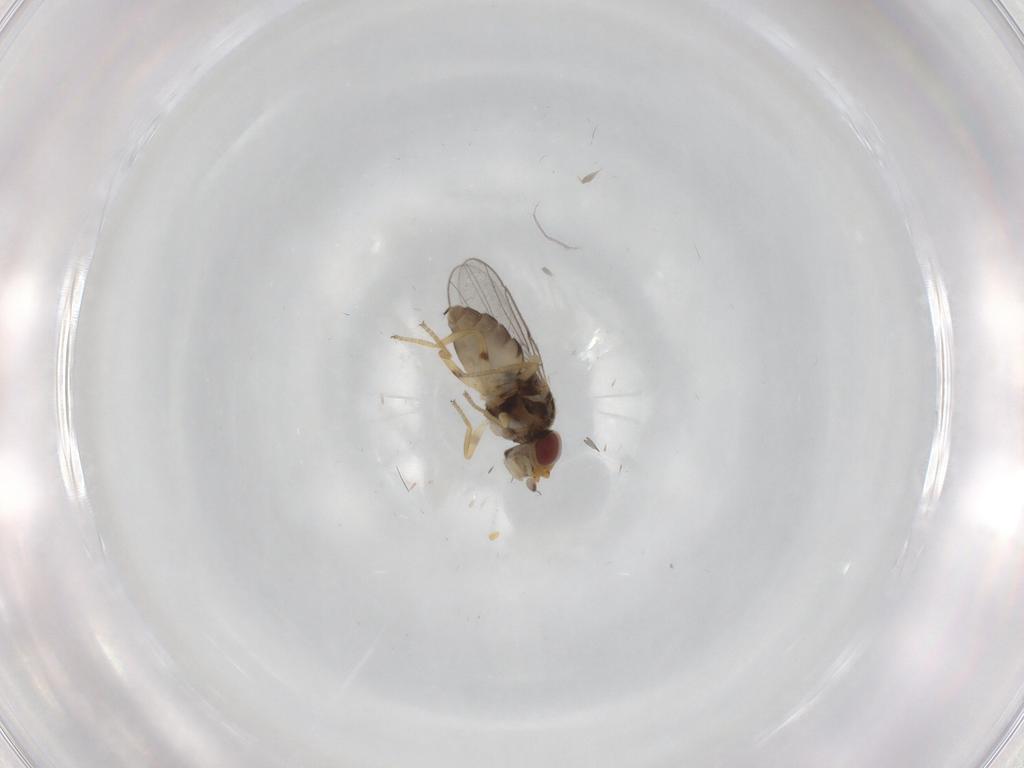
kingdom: Animalia
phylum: Arthropoda
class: Insecta
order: Diptera
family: Chloropidae
